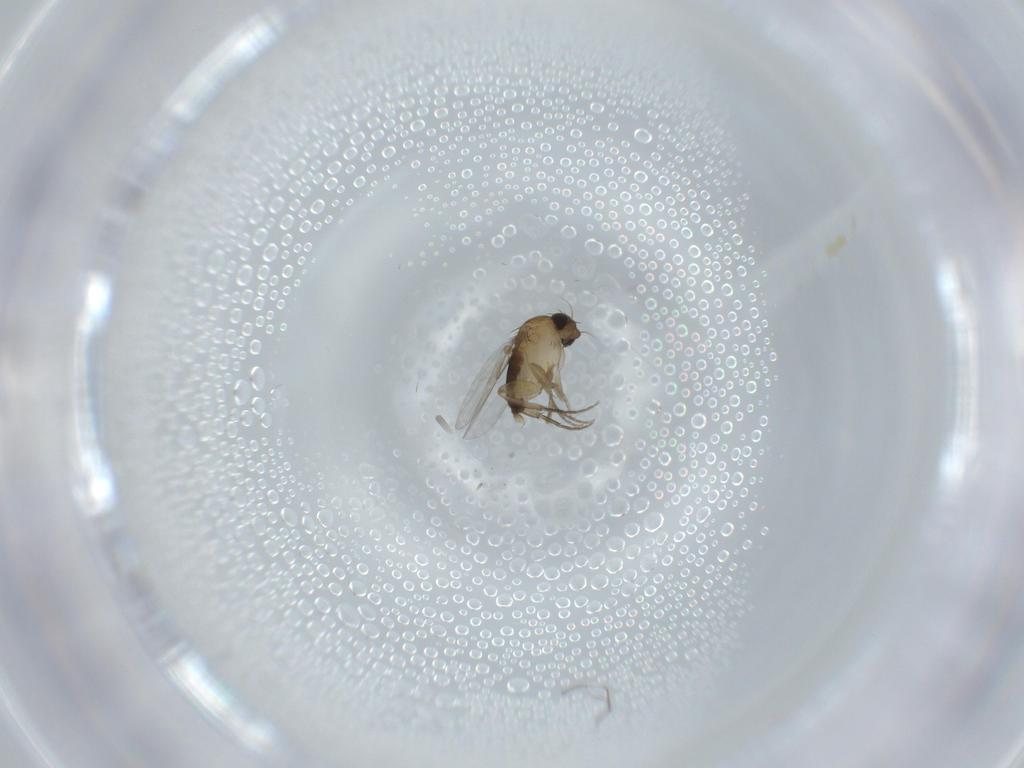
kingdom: Animalia
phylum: Arthropoda
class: Insecta
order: Diptera
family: Phoridae
